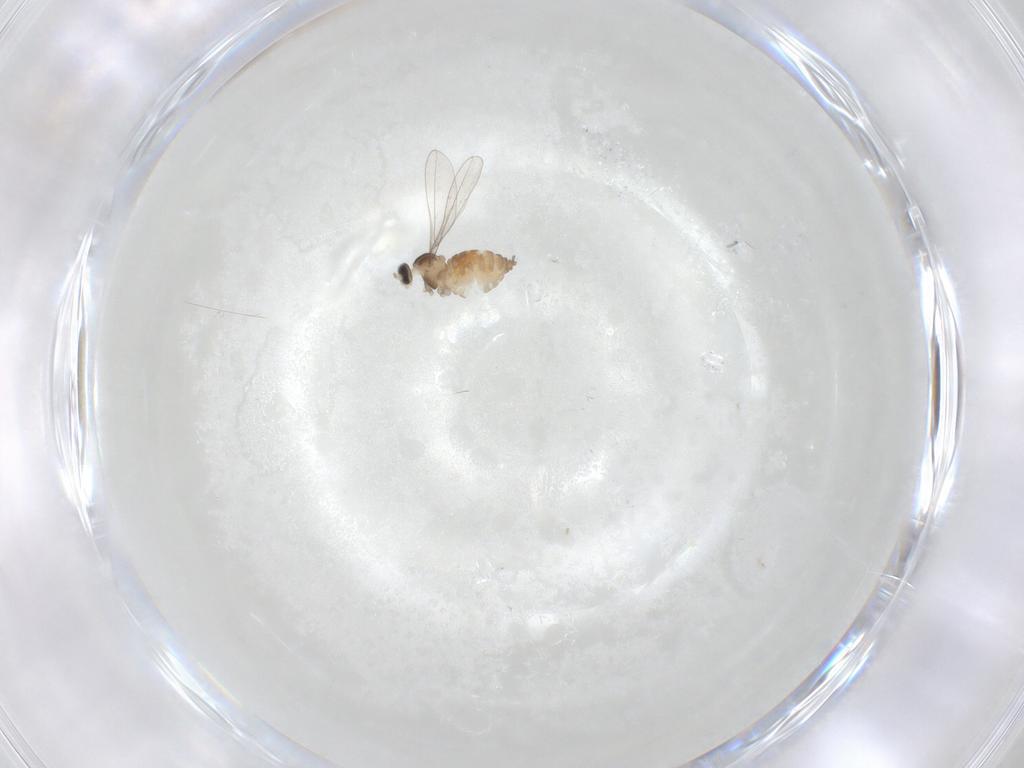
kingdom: Animalia
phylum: Arthropoda
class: Insecta
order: Diptera
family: Cecidomyiidae
